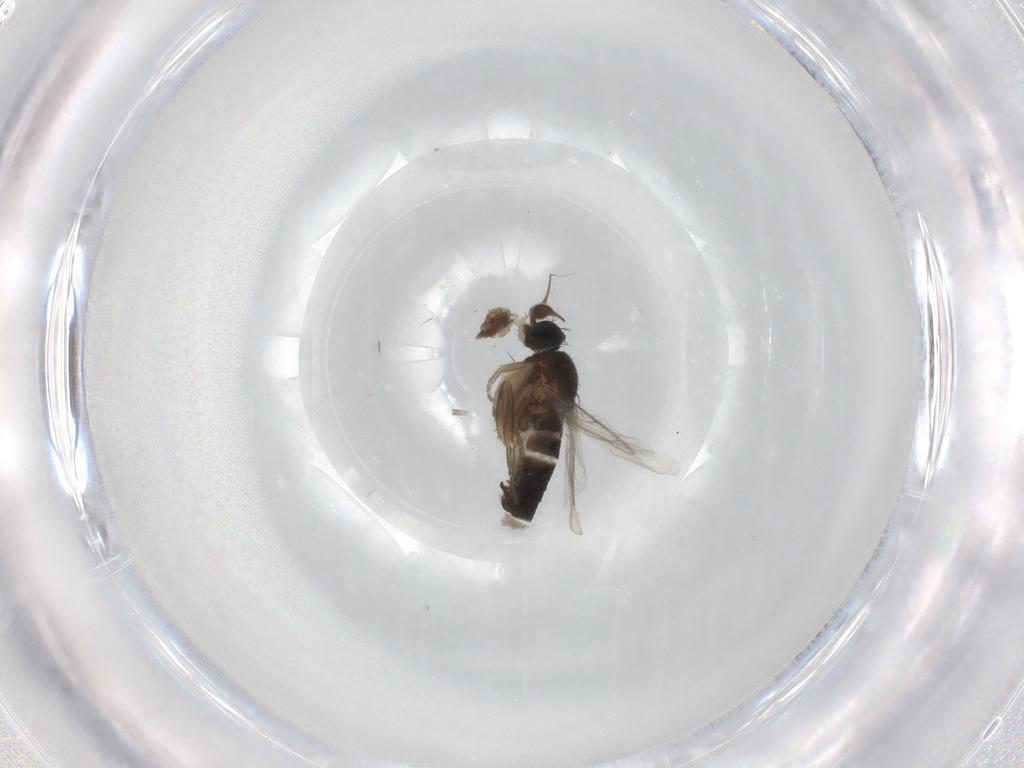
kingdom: Animalia
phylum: Arthropoda
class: Insecta
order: Diptera
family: Phoridae
